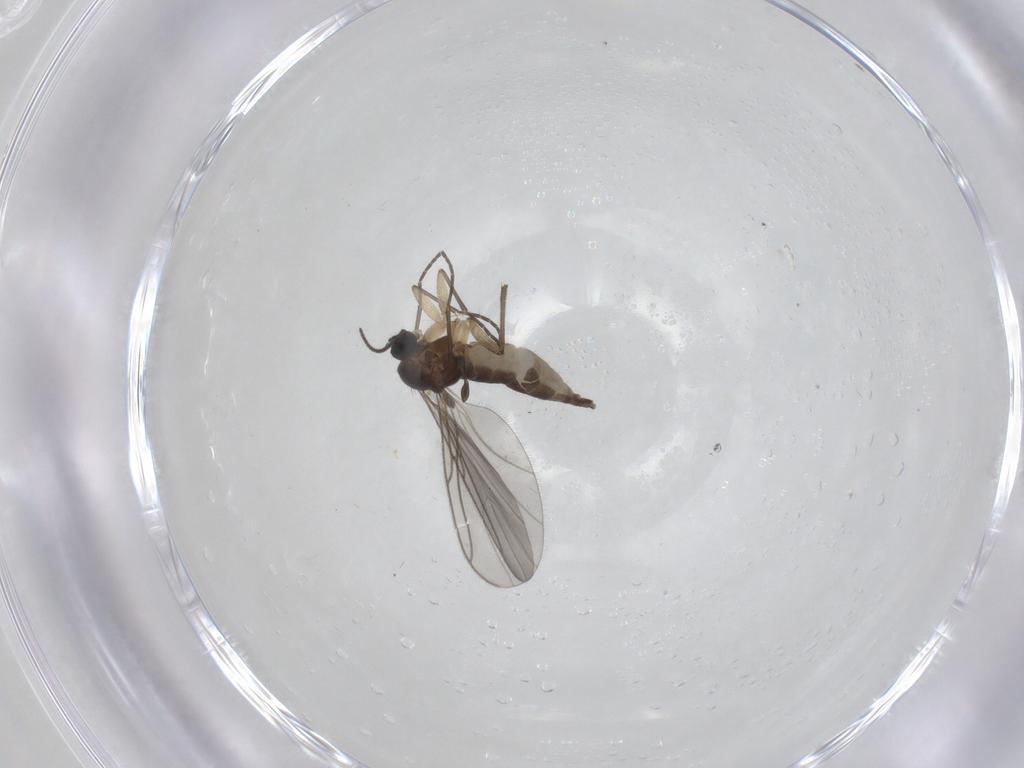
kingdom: Animalia
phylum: Arthropoda
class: Insecta
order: Diptera
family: Sciaridae
